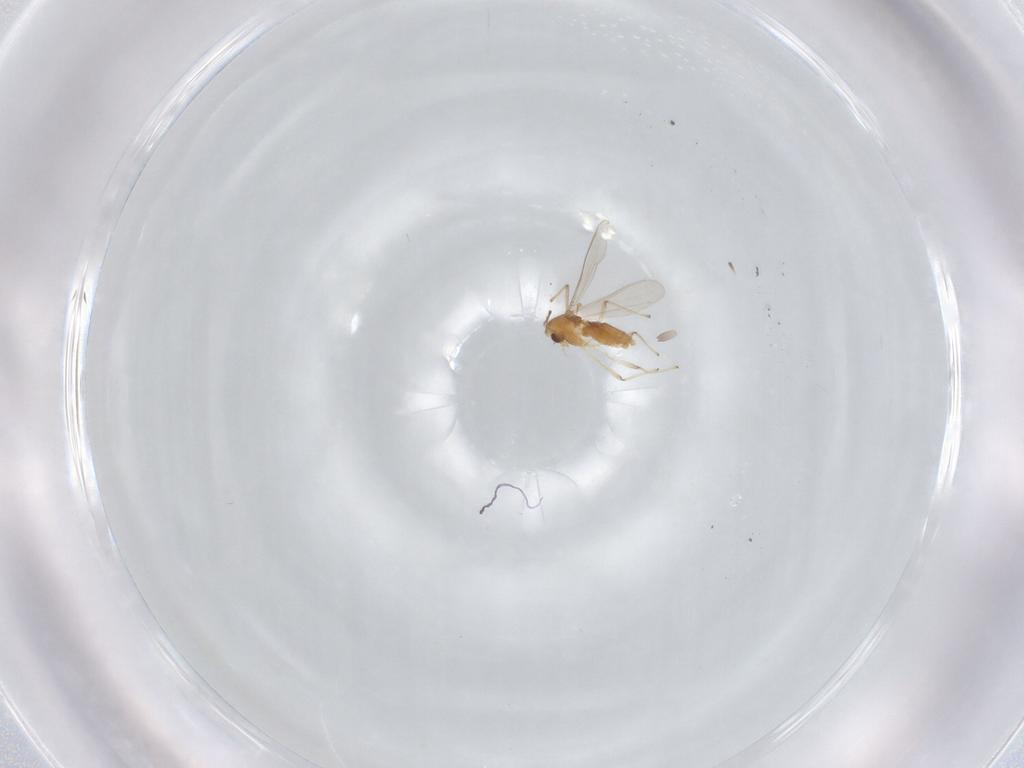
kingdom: Animalia
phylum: Arthropoda
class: Insecta
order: Diptera
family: Chironomidae
